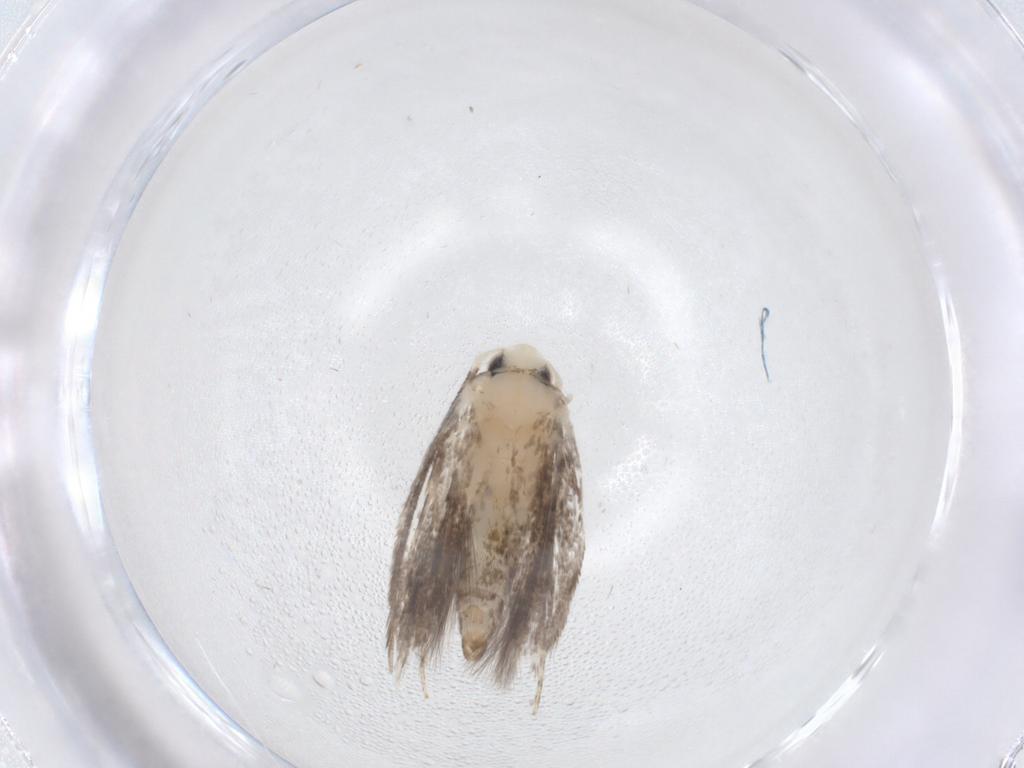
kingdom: Animalia
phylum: Arthropoda
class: Insecta
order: Lepidoptera
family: Lyonetiidae
